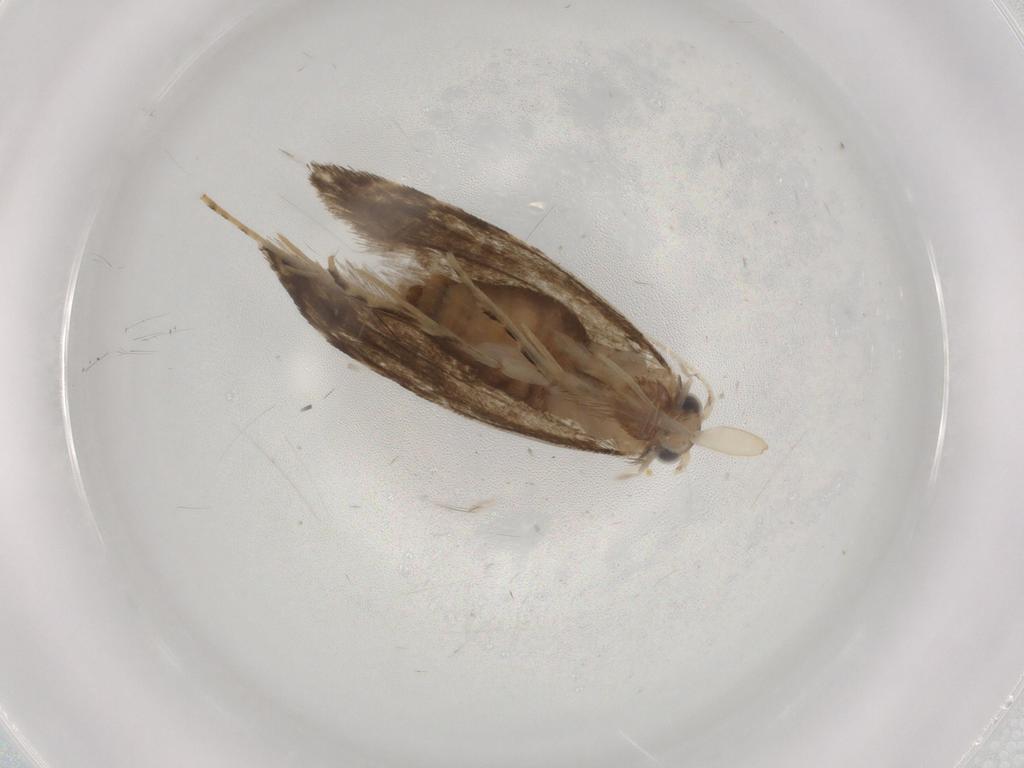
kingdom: Animalia
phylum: Arthropoda
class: Insecta
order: Lepidoptera
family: Tineidae
